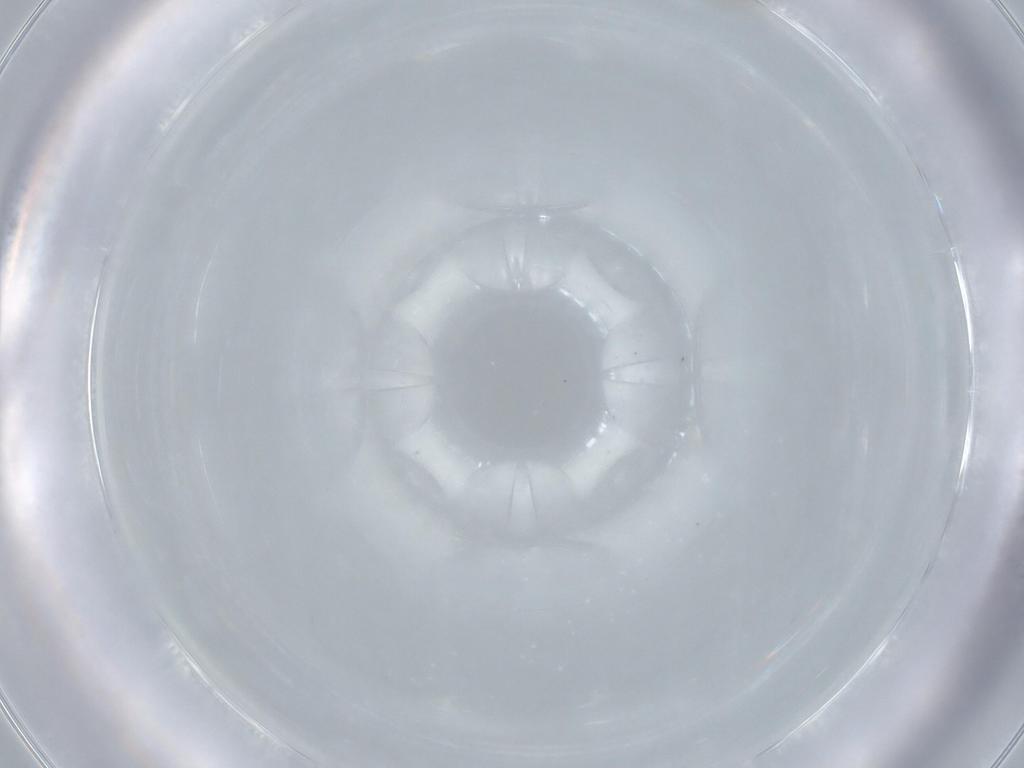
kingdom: Animalia
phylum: Arthropoda
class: Insecta
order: Diptera
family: Cecidomyiidae
